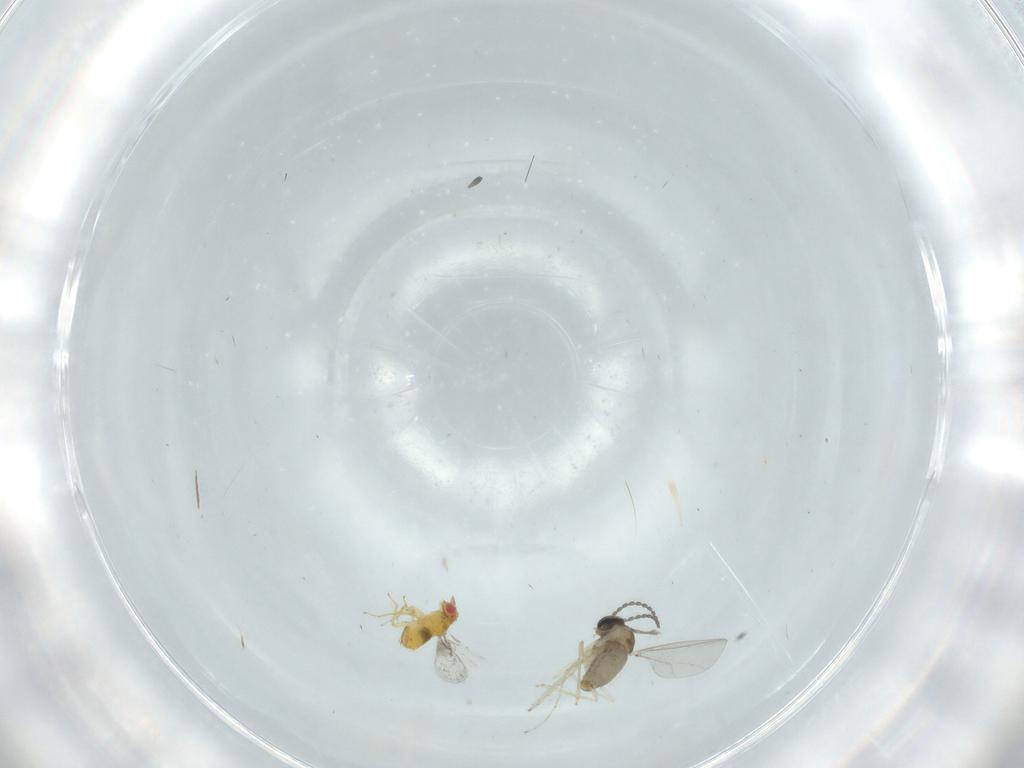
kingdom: Animalia
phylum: Arthropoda
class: Insecta
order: Diptera
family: Cecidomyiidae
